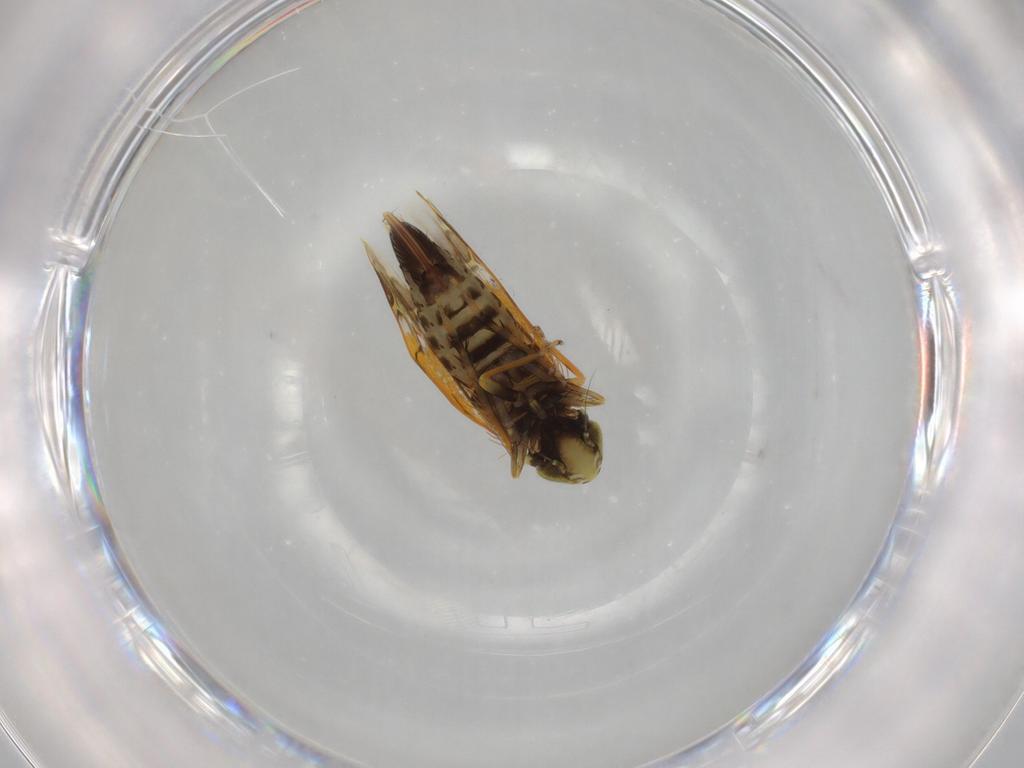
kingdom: Animalia
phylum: Arthropoda
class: Insecta
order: Hemiptera
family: Cicadellidae
